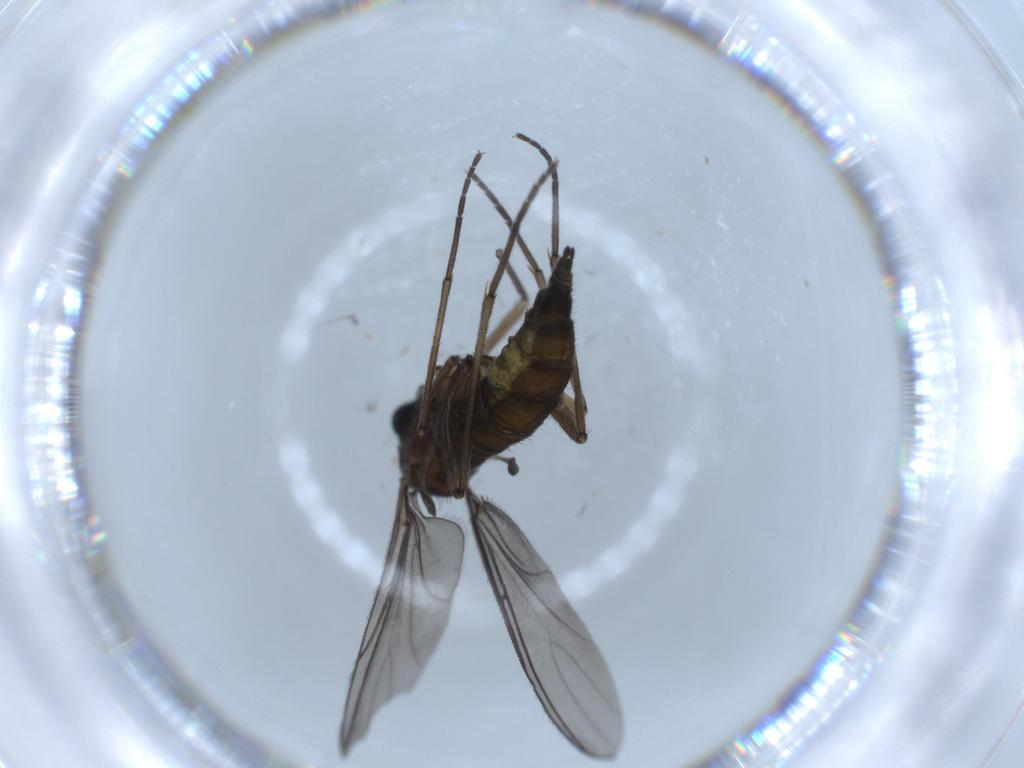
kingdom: Animalia
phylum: Arthropoda
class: Insecta
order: Diptera
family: Sciaridae
